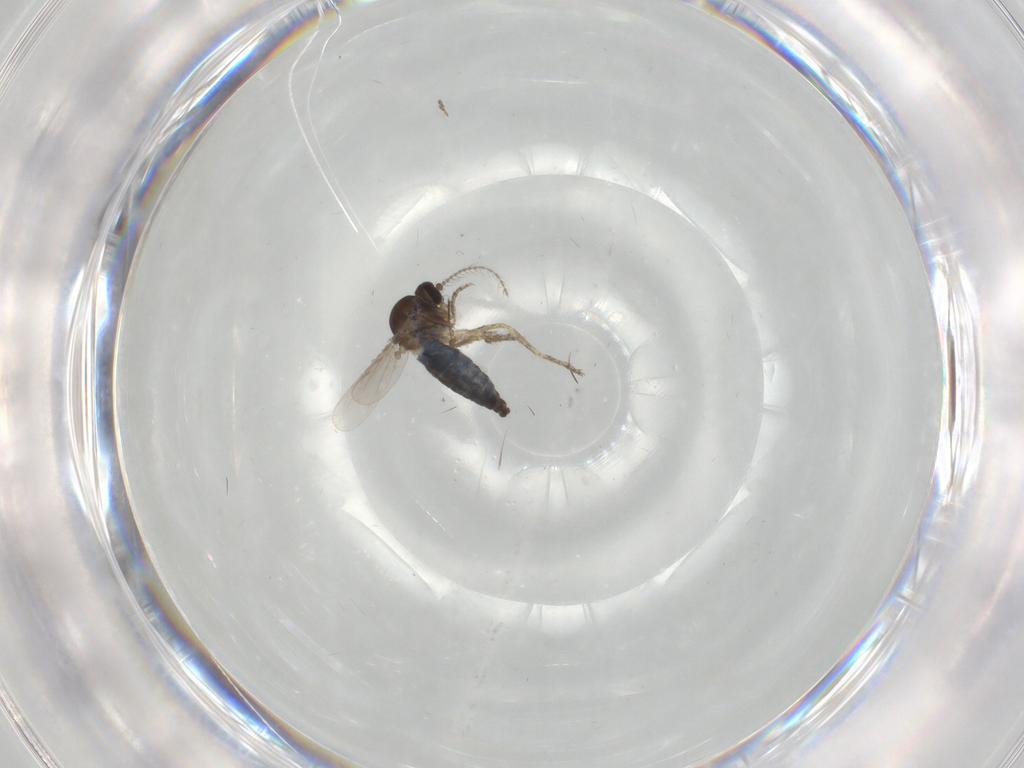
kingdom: Animalia
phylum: Arthropoda
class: Insecta
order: Diptera
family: Ceratopogonidae
